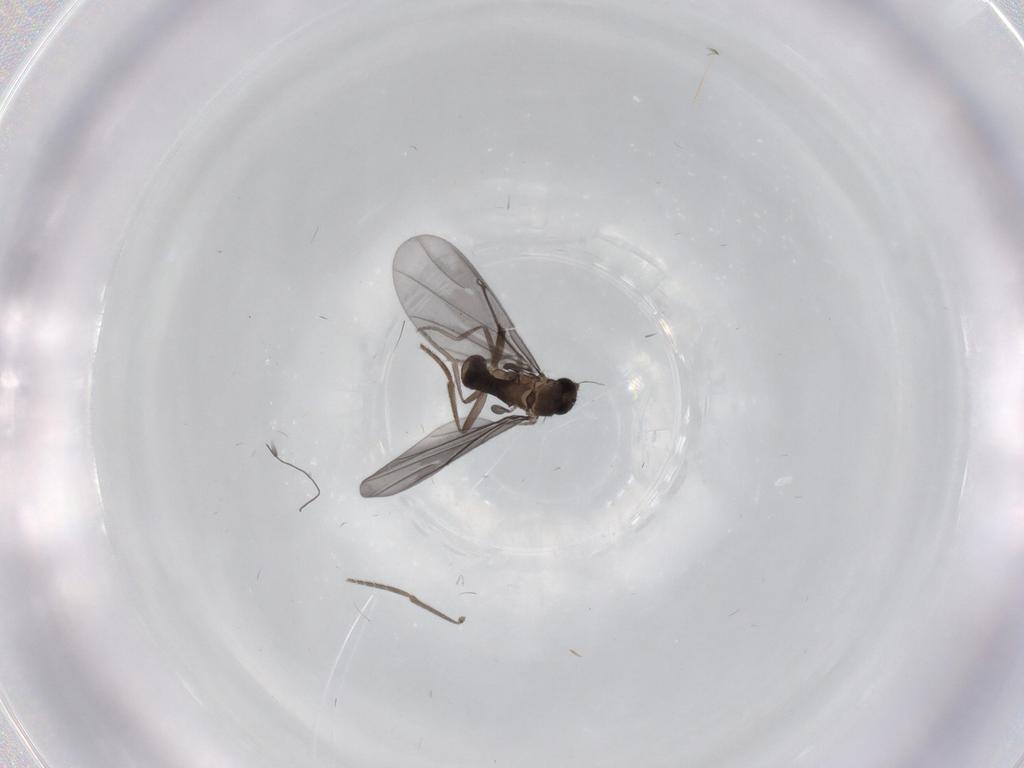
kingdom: Animalia
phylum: Arthropoda
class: Insecta
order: Diptera
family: Phoridae
